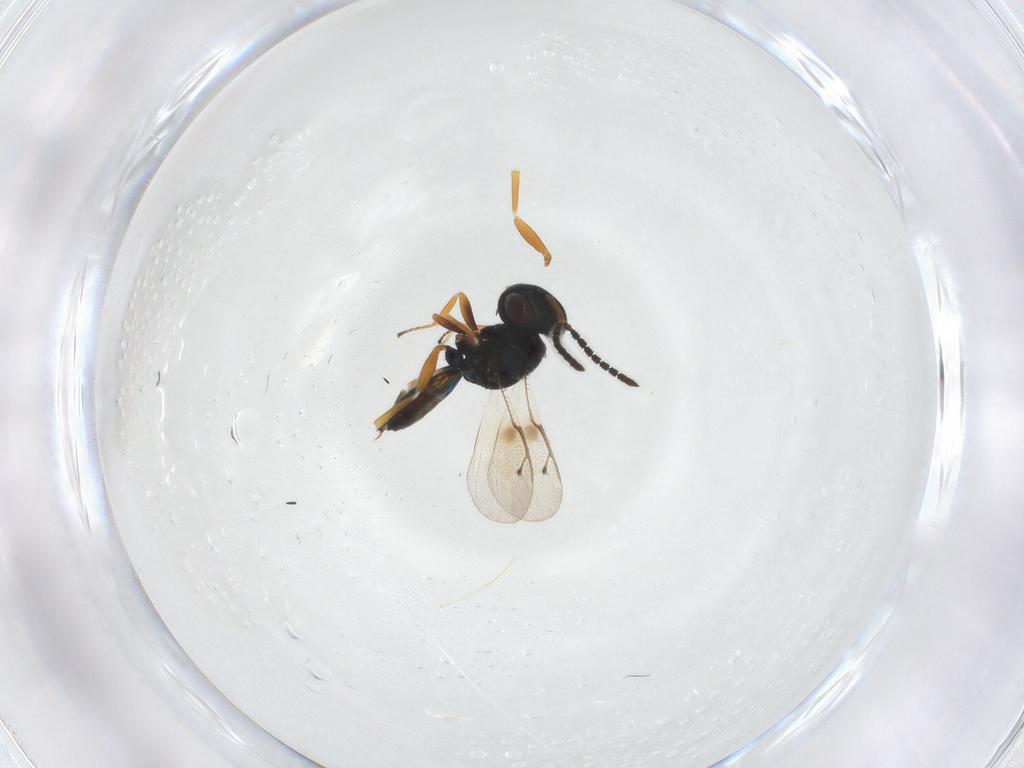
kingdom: Animalia
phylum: Arthropoda
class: Insecta
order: Hymenoptera
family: Pteromalidae
